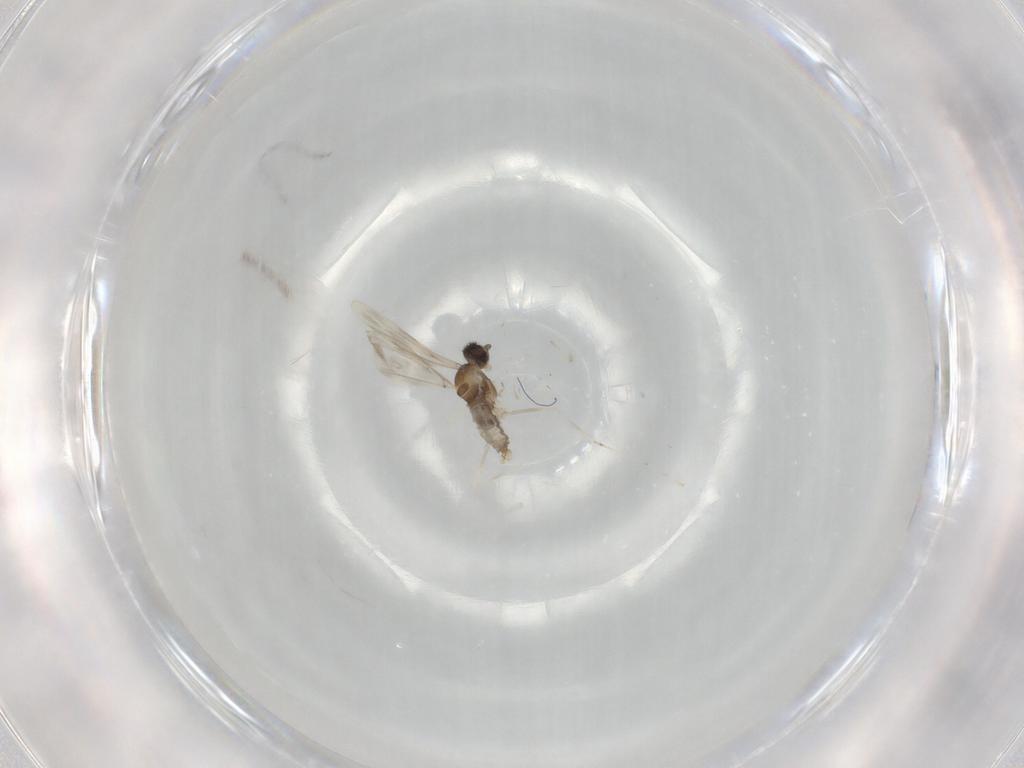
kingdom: Animalia
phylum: Arthropoda
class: Insecta
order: Diptera
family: Cecidomyiidae
